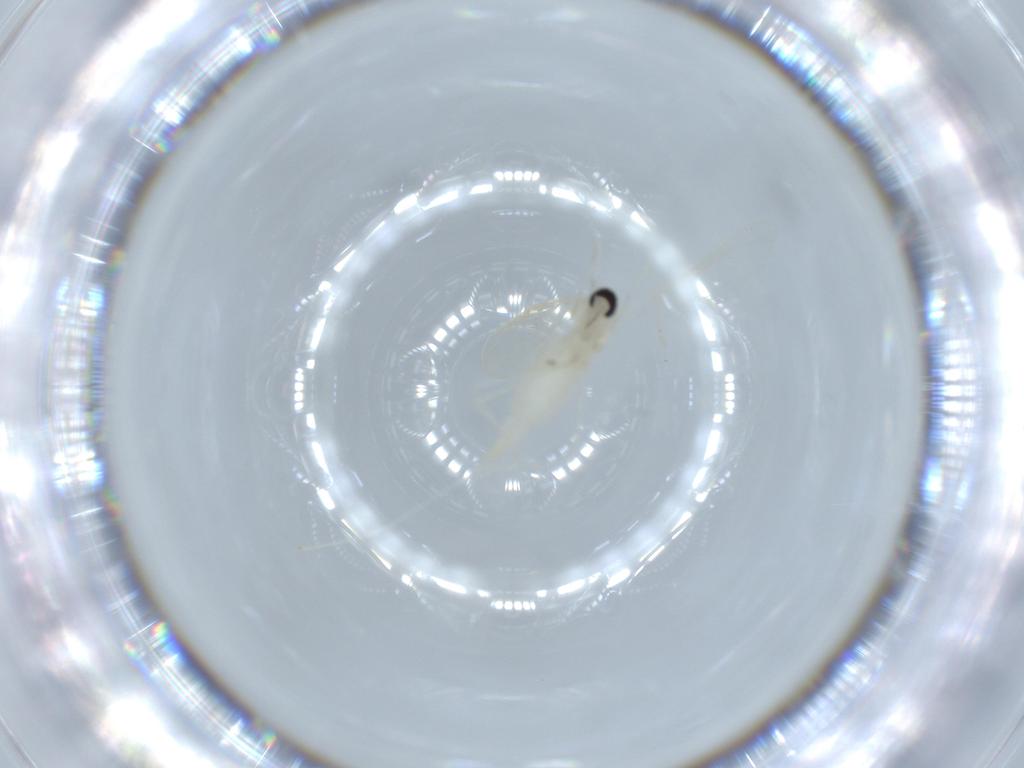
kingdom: Animalia
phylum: Arthropoda
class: Insecta
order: Diptera
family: Cecidomyiidae
